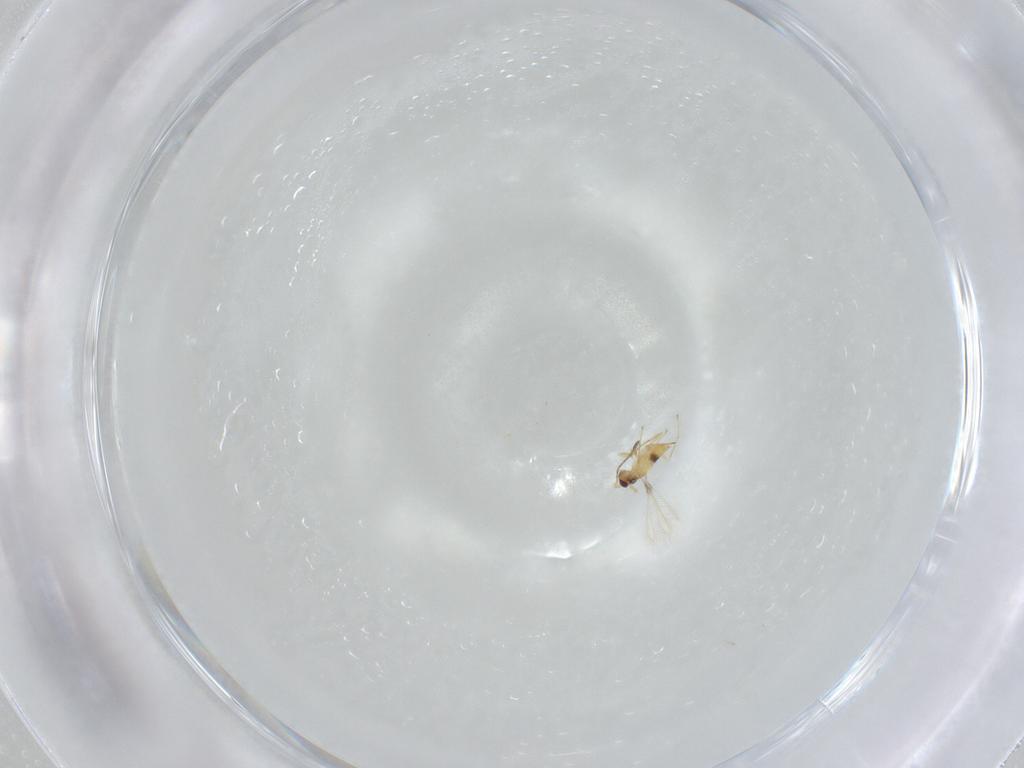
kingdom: Animalia
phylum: Arthropoda
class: Insecta
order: Hymenoptera
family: Mymaridae
